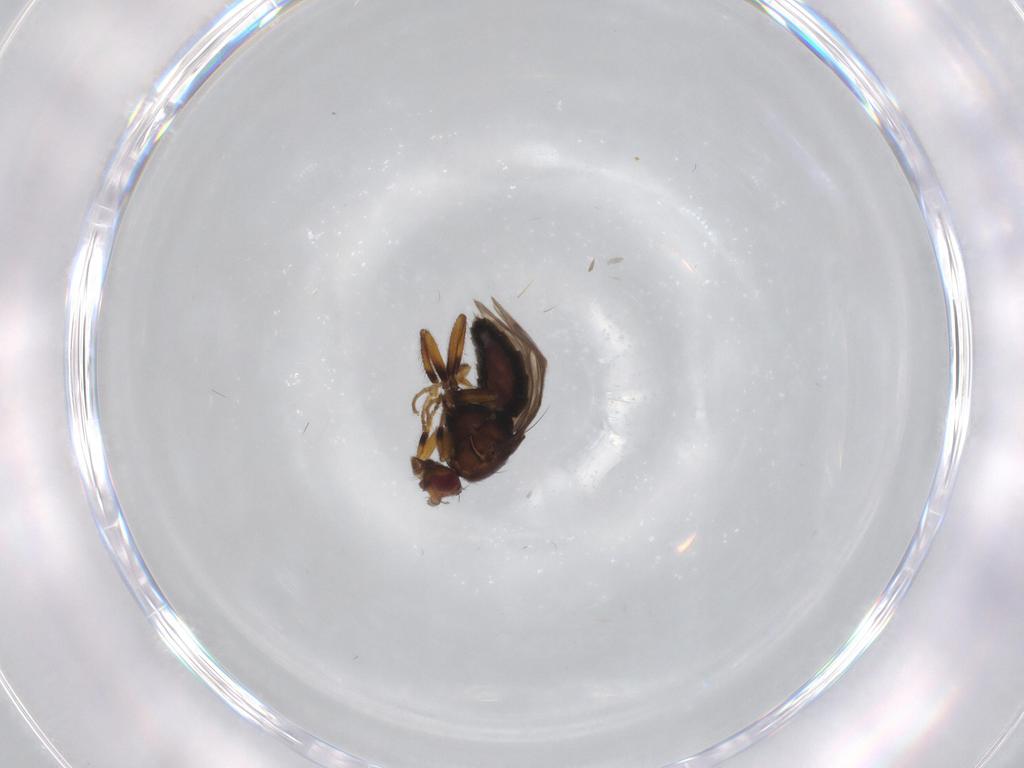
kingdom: Animalia
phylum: Arthropoda
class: Insecta
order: Diptera
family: Sphaeroceridae
